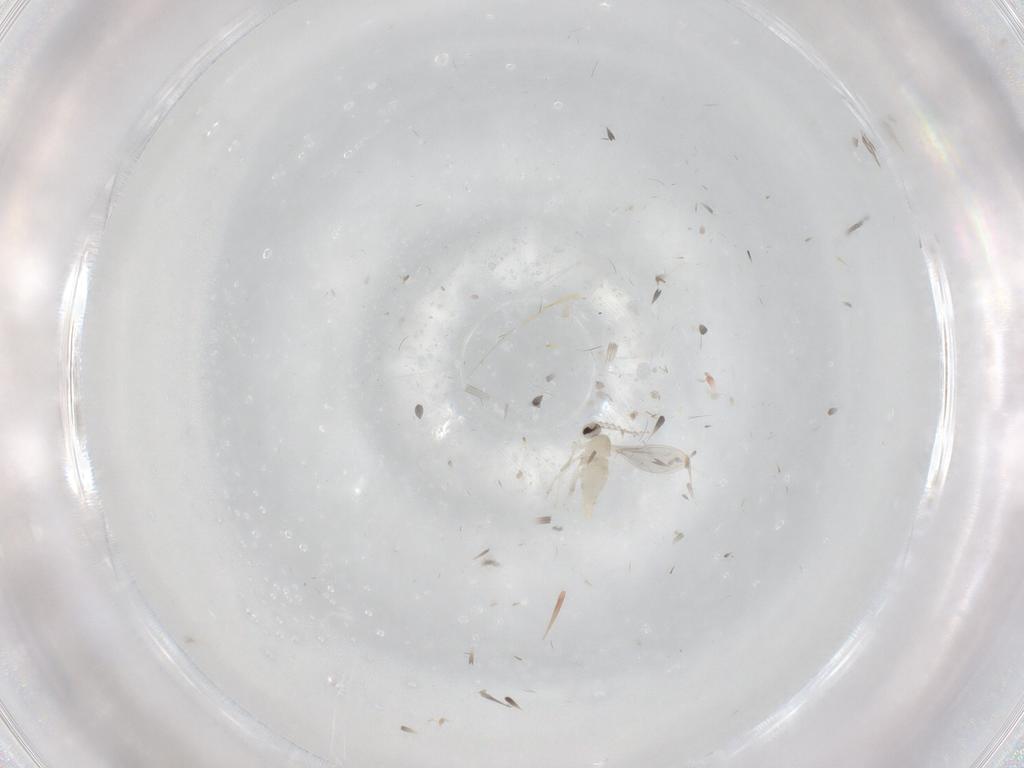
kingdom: Animalia
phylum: Arthropoda
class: Insecta
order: Diptera
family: Cecidomyiidae
